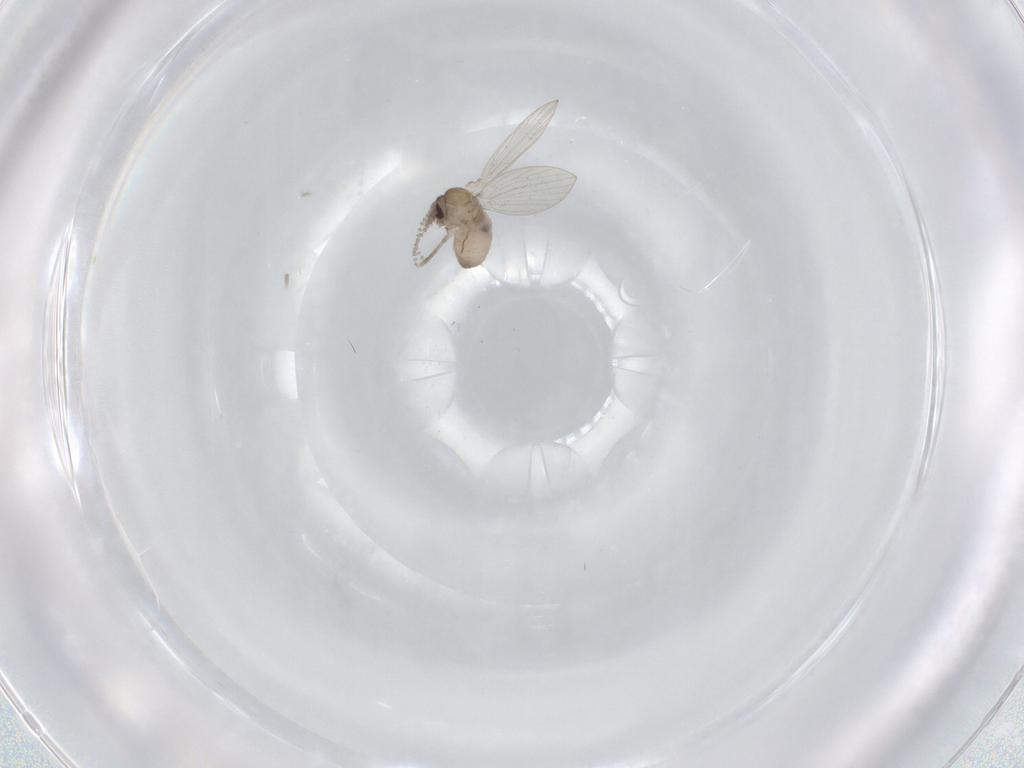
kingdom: Animalia
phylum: Arthropoda
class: Insecta
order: Diptera
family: Psychodidae
